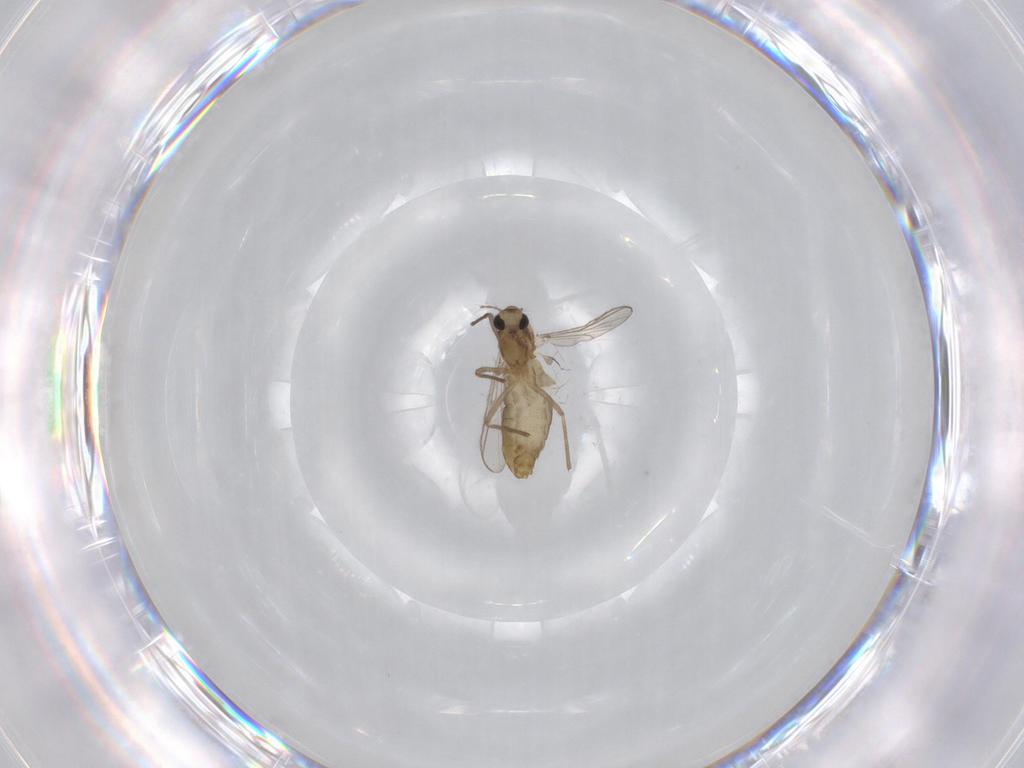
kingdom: Animalia
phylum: Arthropoda
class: Insecta
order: Diptera
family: Chironomidae
